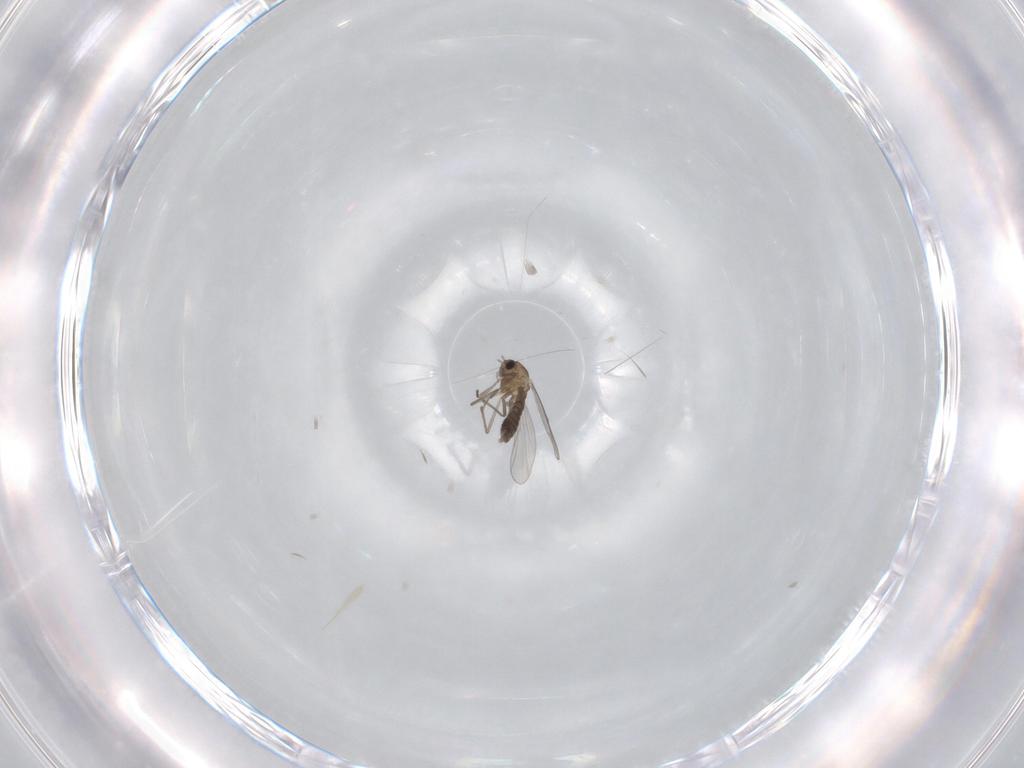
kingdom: Animalia
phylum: Arthropoda
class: Insecta
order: Diptera
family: Chironomidae
